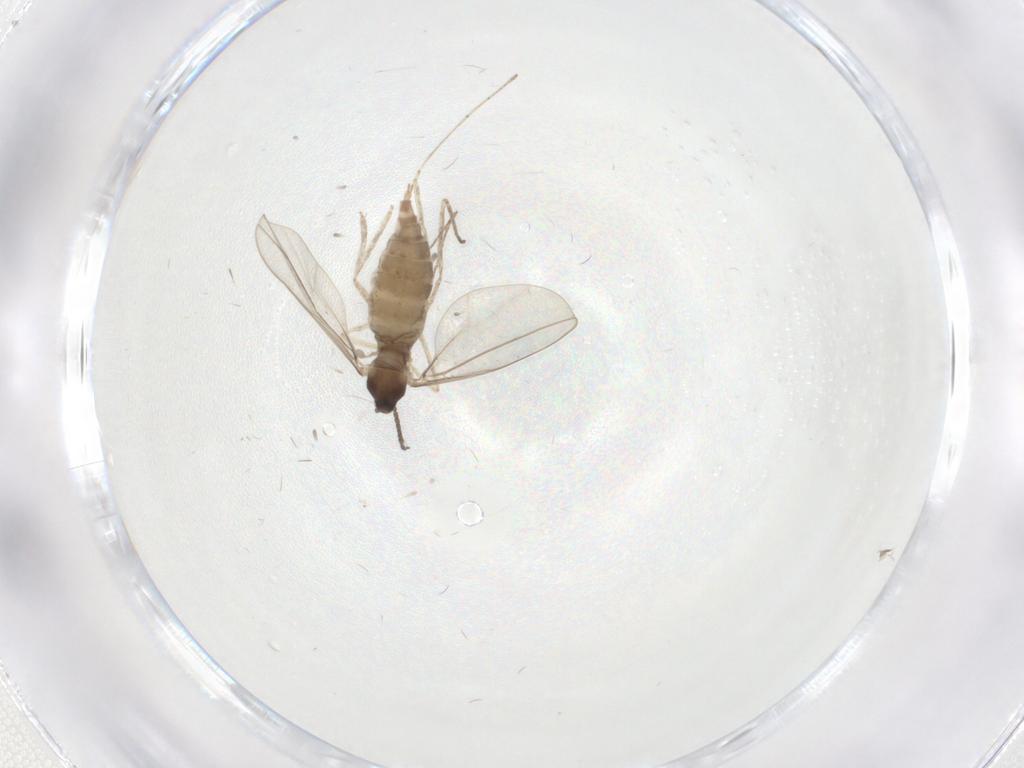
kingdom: Animalia
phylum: Arthropoda
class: Insecta
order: Diptera
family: Cecidomyiidae
